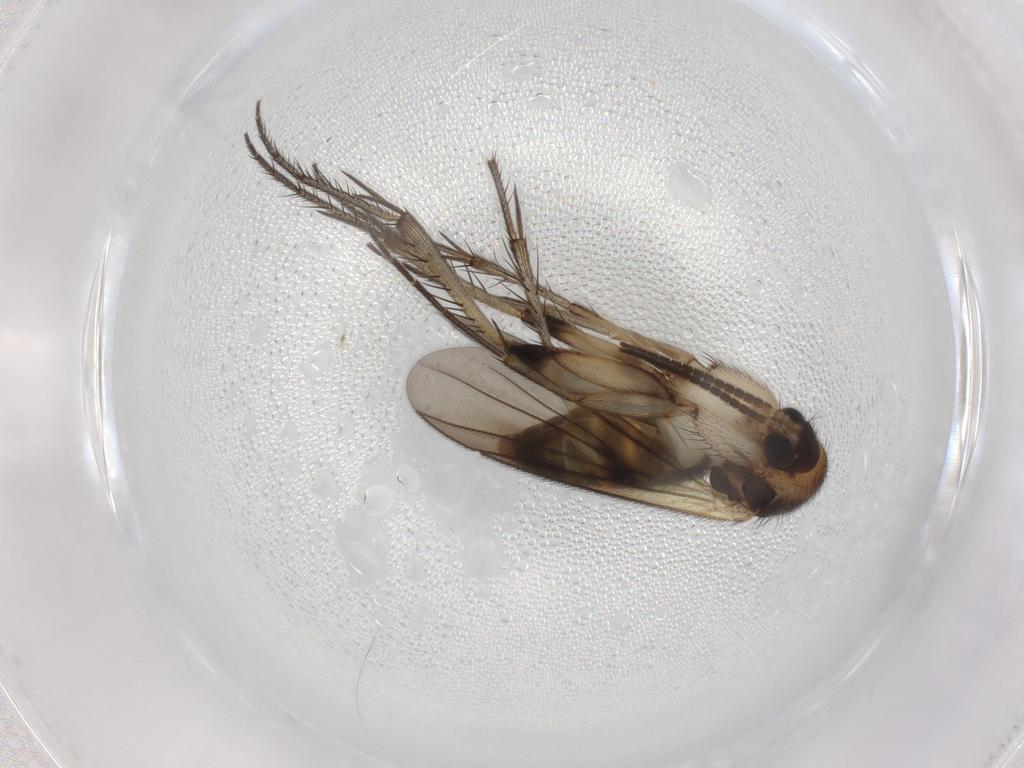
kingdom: Animalia
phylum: Arthropoda
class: Insecta
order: Diptera
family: Mycetophilidae
